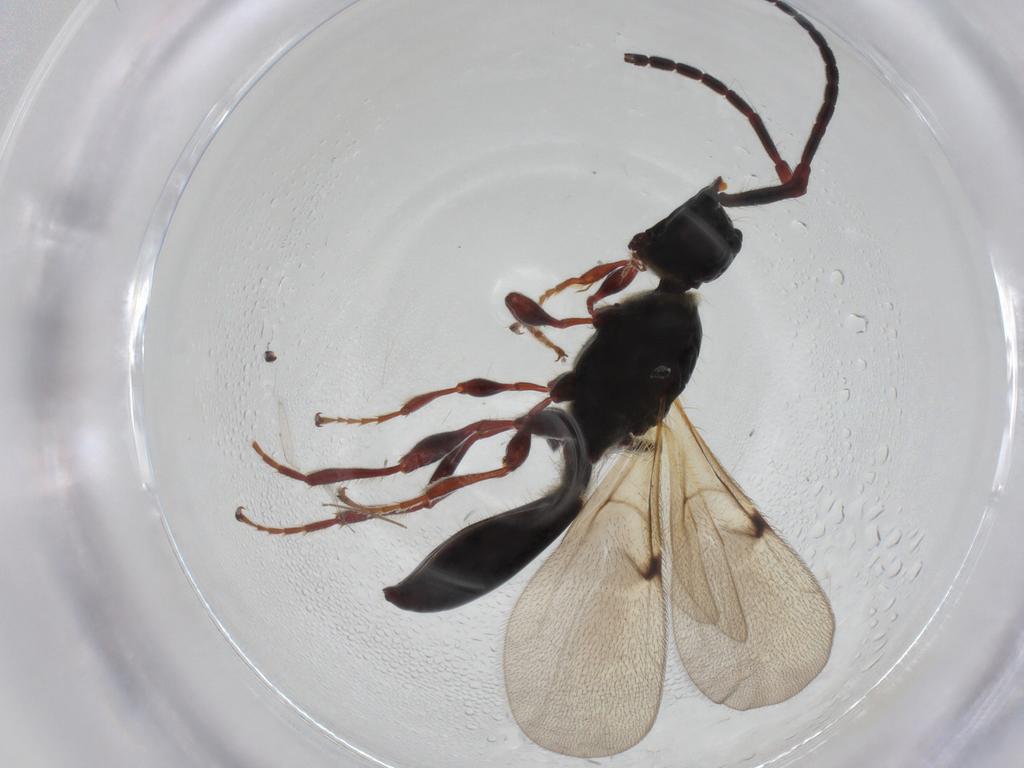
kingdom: Animalia
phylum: Arthropoda
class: Insecta
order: Hymenoptera
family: Diapriidae
